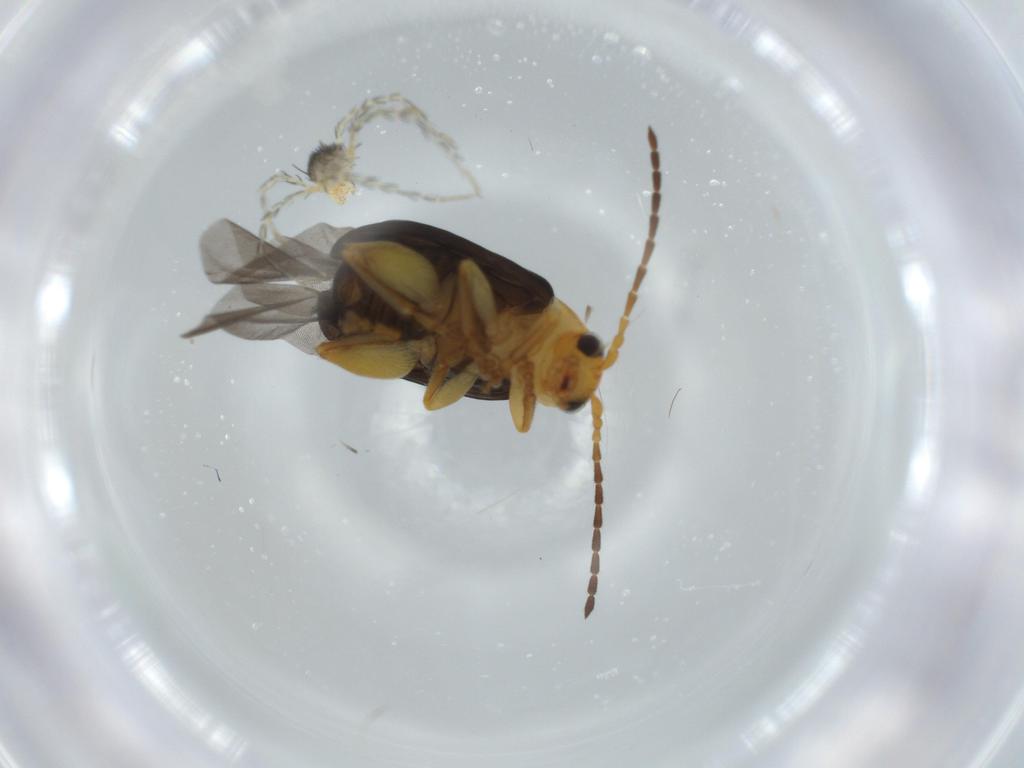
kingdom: Animalia
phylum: Arthropoda
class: Insecta
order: Coleoptera
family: Chrysomelidae
